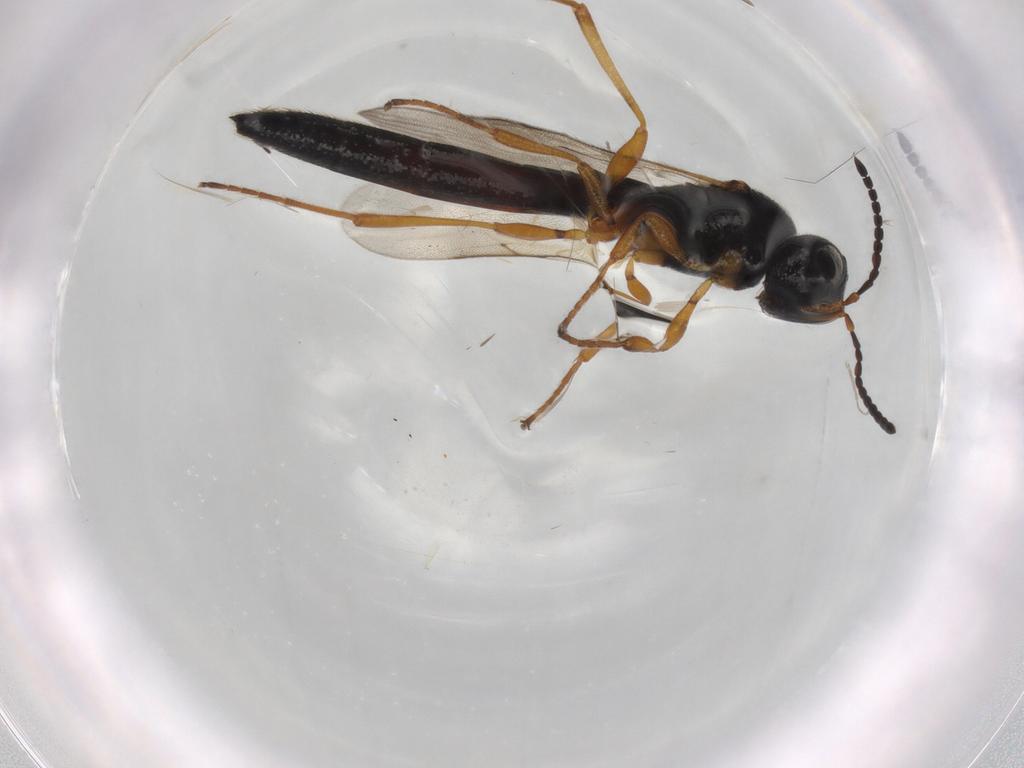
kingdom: Animalia
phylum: Arthropoda
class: Insecta
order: Hymenoptera
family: Scelionidae
